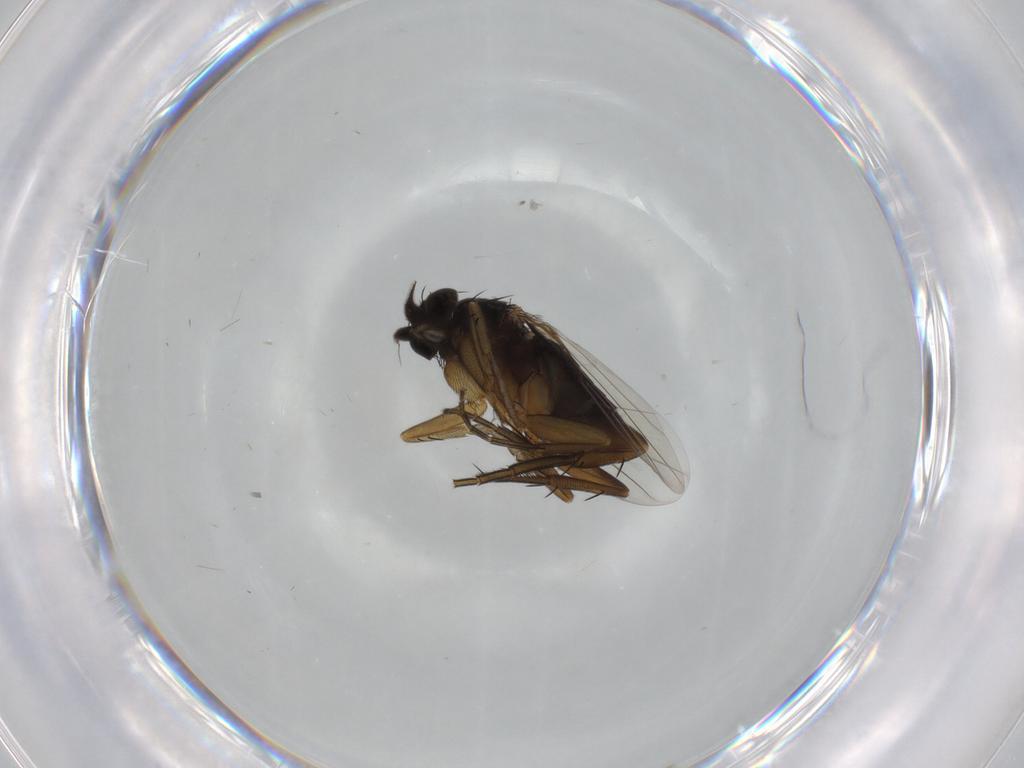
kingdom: Animalia
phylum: Arthropoda
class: Insecta
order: Diptera
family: Phoridae
